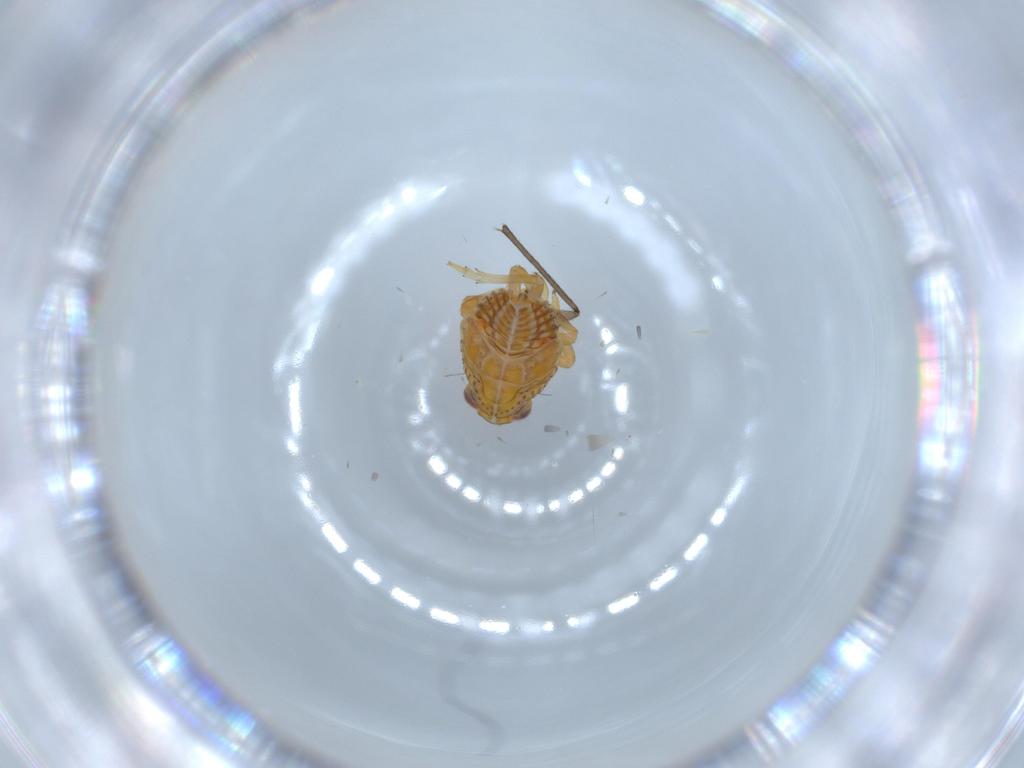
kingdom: Animalia
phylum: Arthropoda
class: Insecta
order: Hemiptera
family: Issidae
